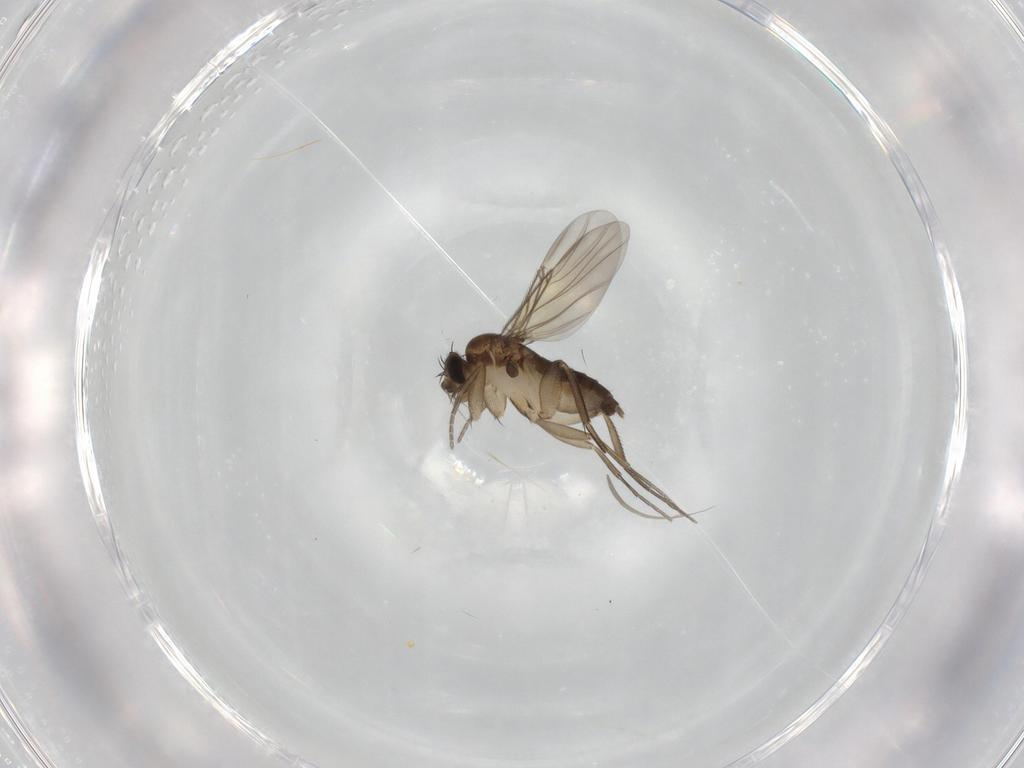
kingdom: Animalia
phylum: Arthropoda
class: Insecta
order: Diptera
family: Phoridae
